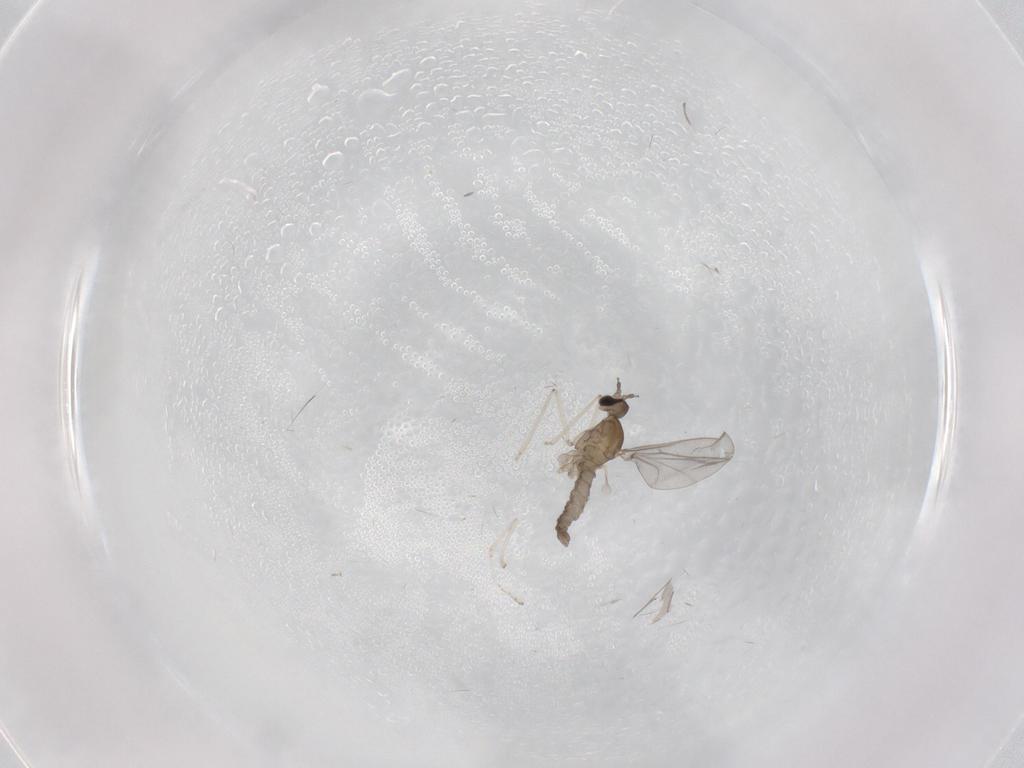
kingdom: Animalia
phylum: Arthropoda
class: Insecta
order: Diptera
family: Cecidomyiidae
